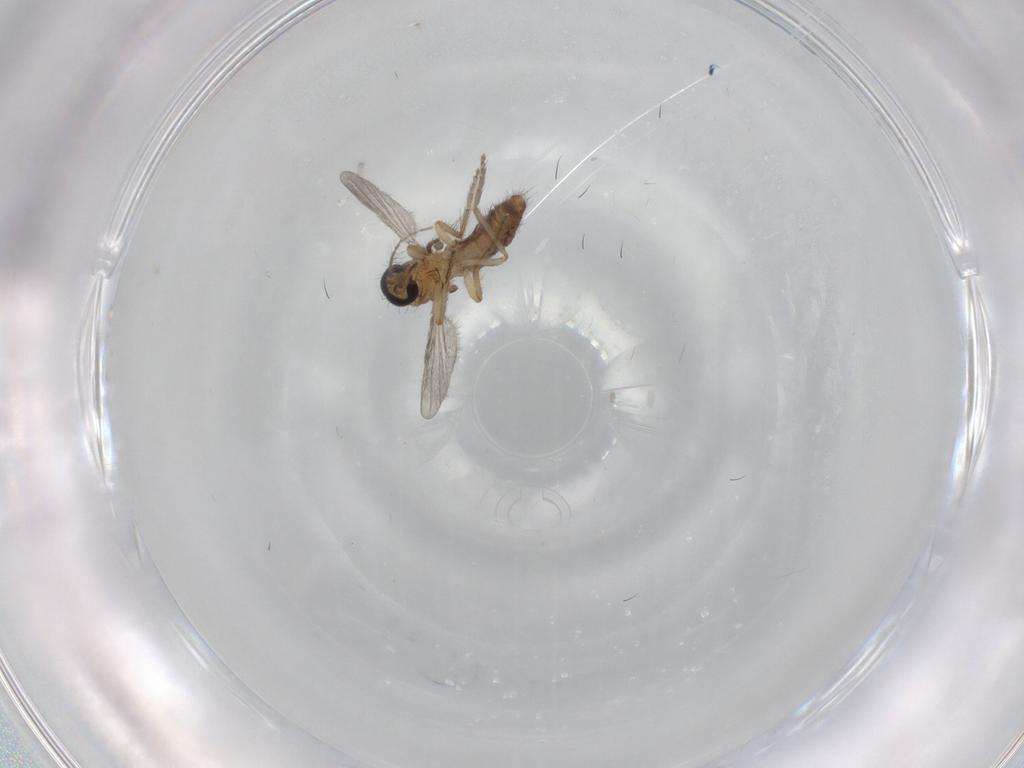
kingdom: Animalia
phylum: Arthropoda
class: Insecta
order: Diptera
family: Ceratopogonidae
